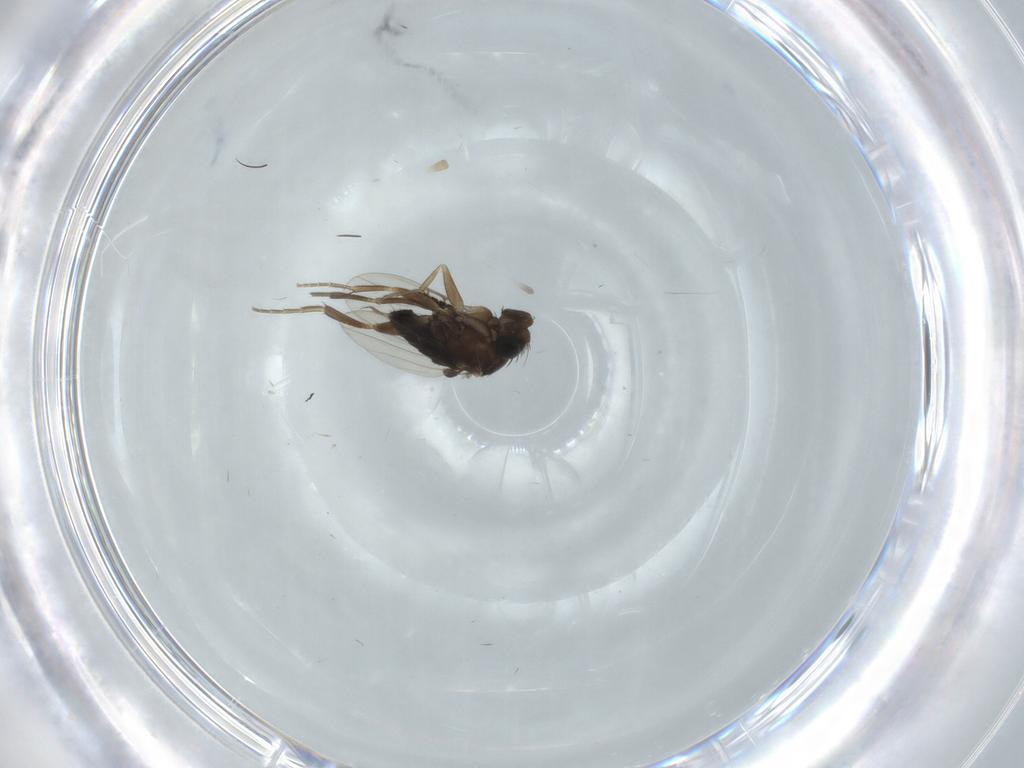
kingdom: Animalia
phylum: Arthropoda
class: Insecta
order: Diptera
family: Phoridae
